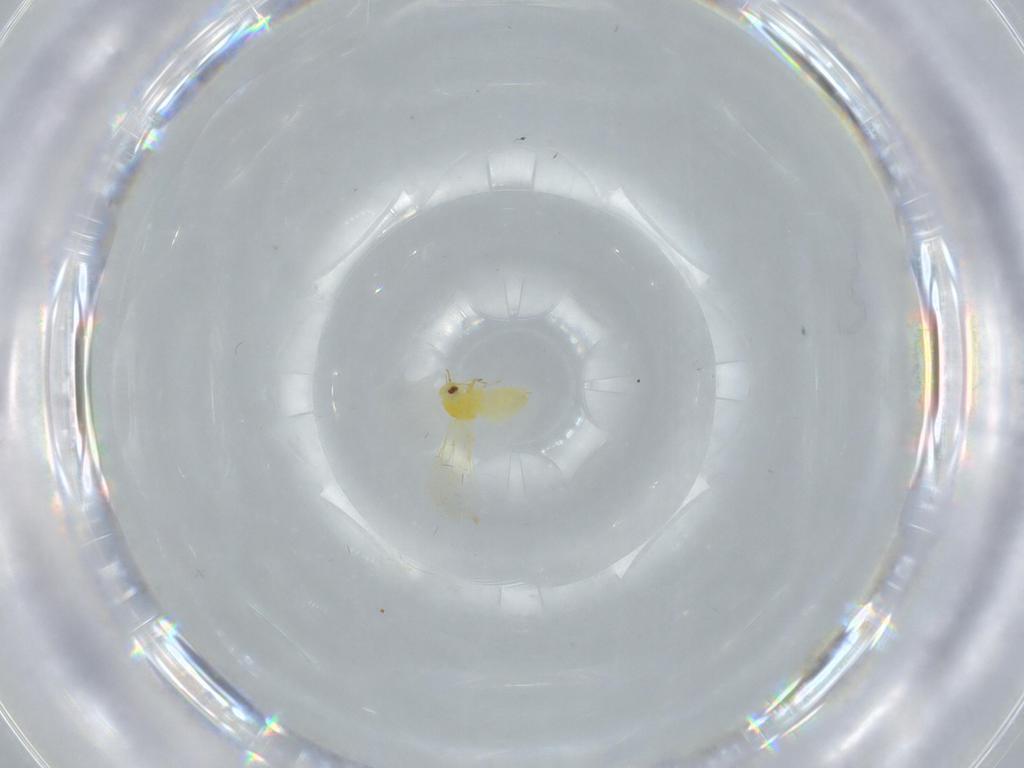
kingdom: Animalia
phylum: Arthropoda
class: Insecta
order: Hemiptera
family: Aleyrodidae
